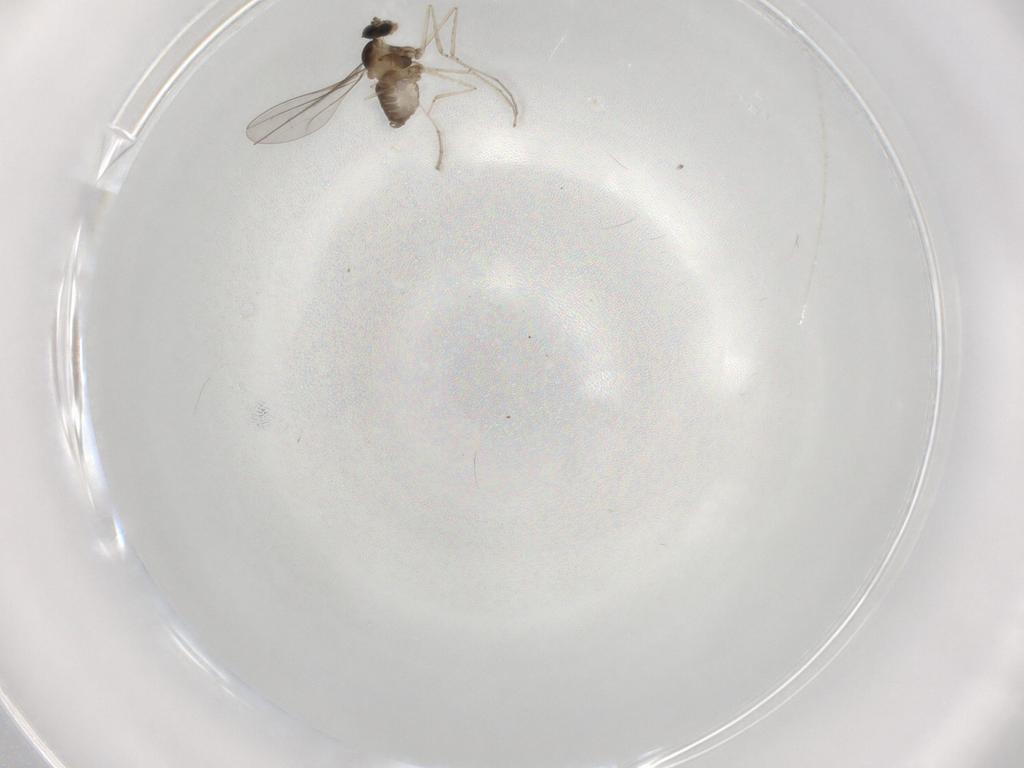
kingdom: Animalia
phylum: Arthropoda
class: Insecta
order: Diptera
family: Cecidomyiidae
